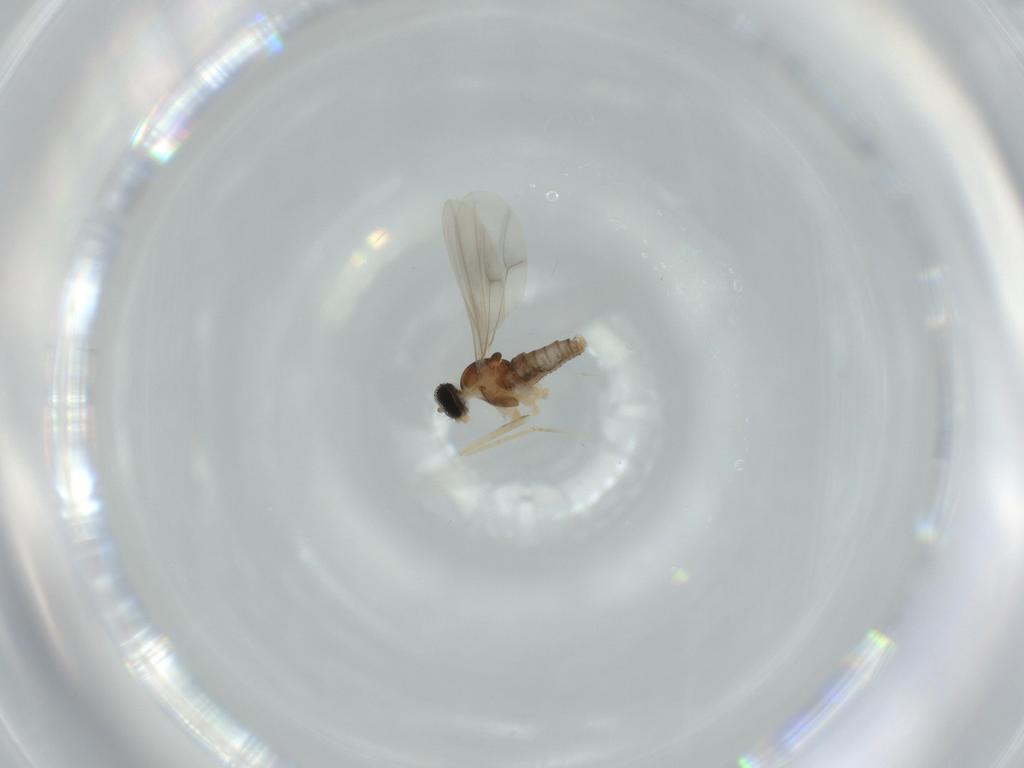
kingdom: Animalia
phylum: Arthropoda
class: Insecta
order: Diptera
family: Cecidomyiidae
